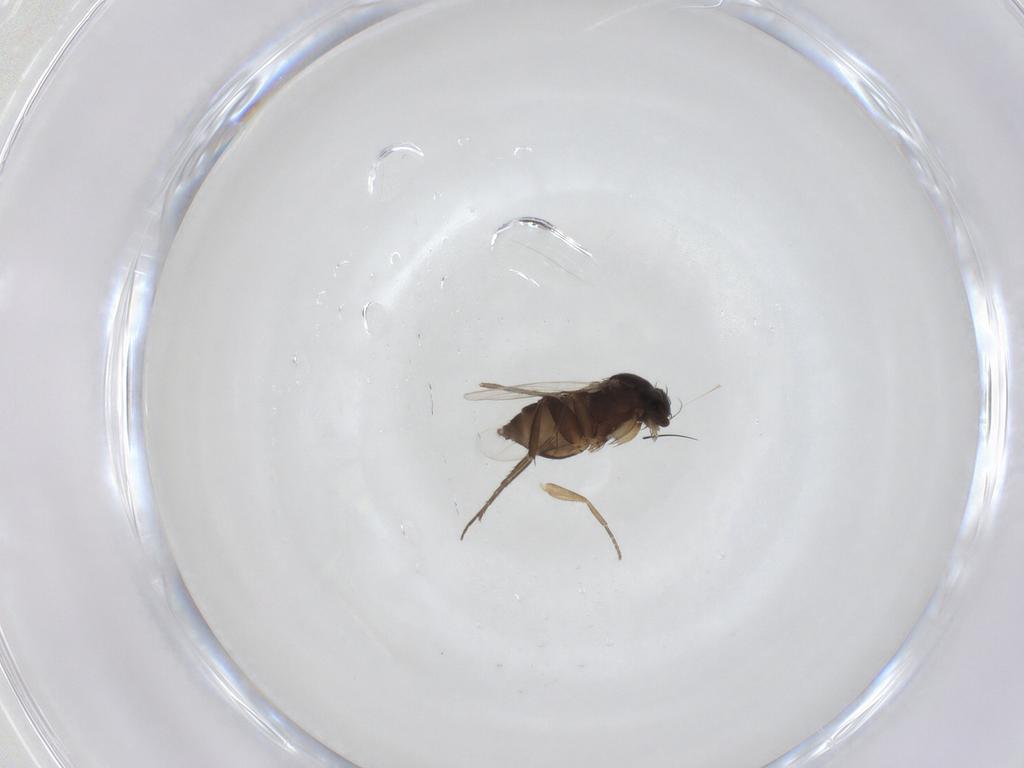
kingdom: Animalia
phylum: Arthropoda
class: Insecta
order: Diptera
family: Sciaridae
